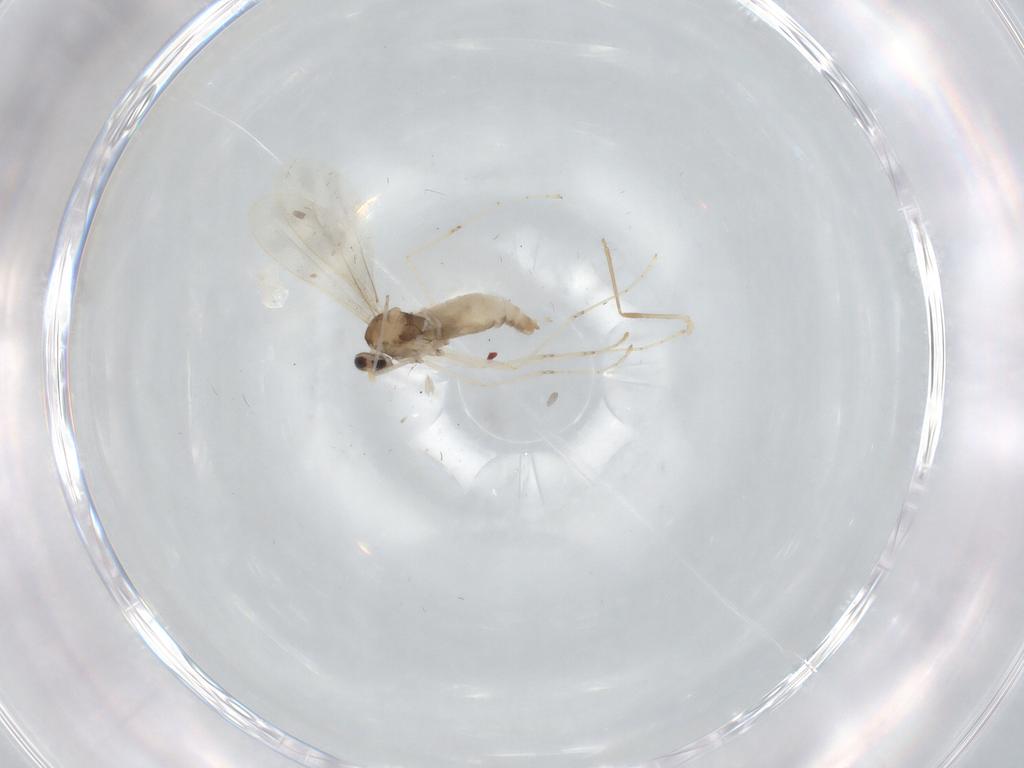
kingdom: Animalia
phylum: Arthropoda
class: Insecta
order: Diptera
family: Cecidomyiidae
